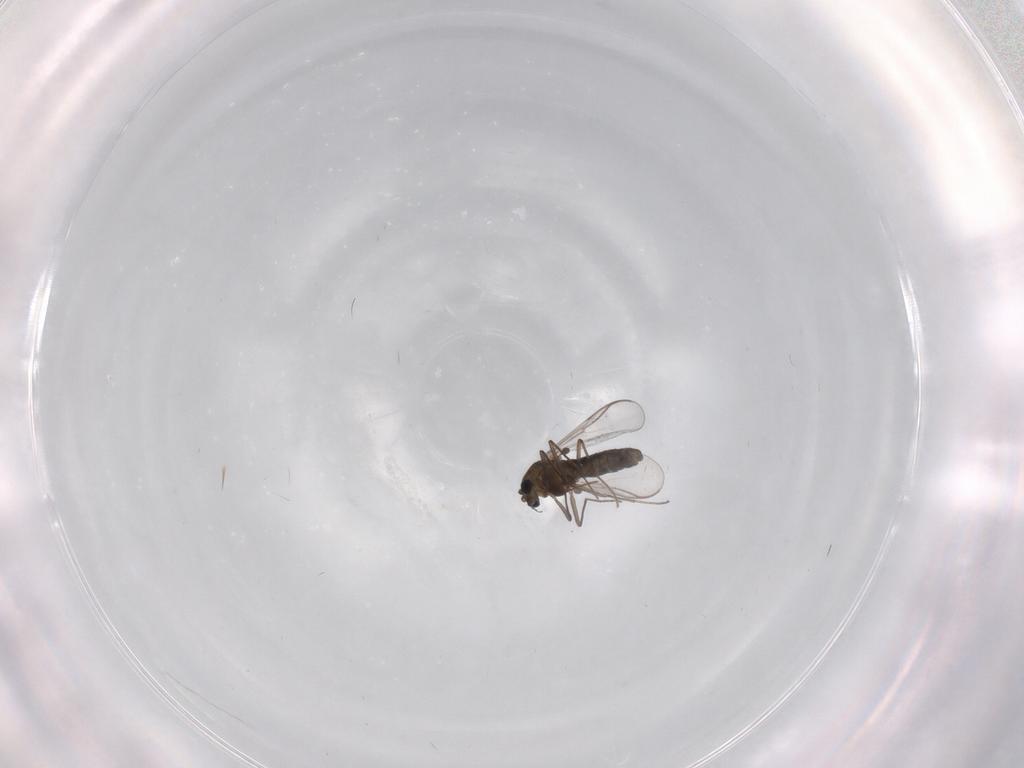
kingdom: Animalia
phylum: Arthropoda
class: Insecta
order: Diptera
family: Chironomidae
